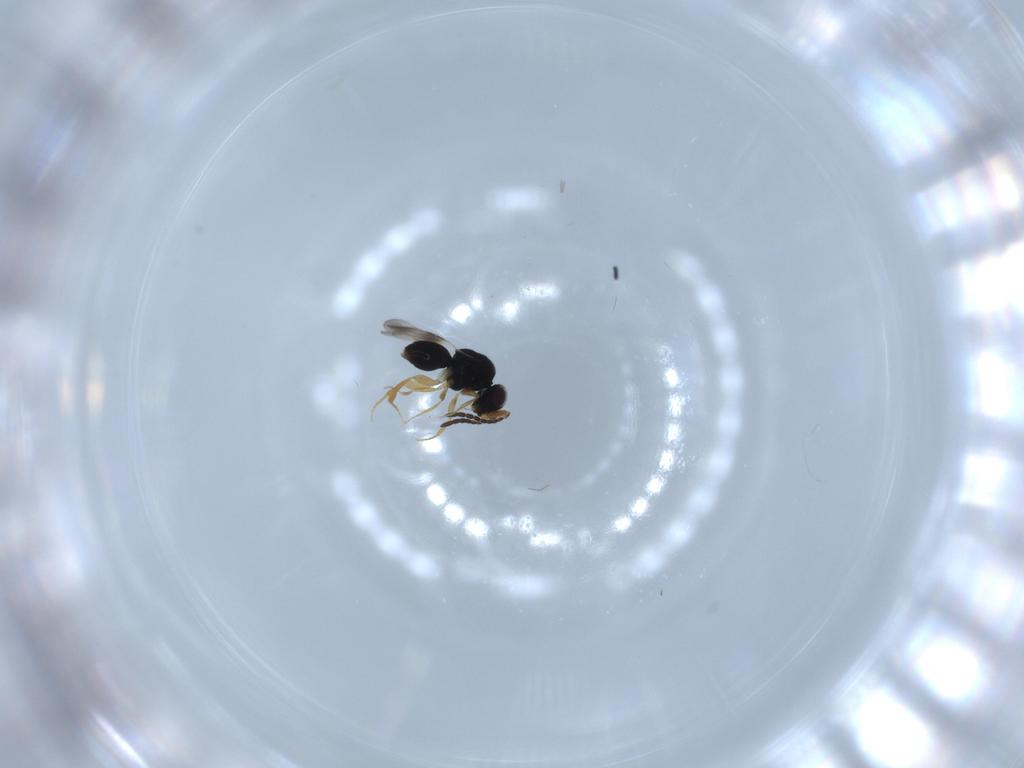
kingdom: Animalia
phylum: Arthropoda
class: Insecta
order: Hymenoptera
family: Ceraphronidae
